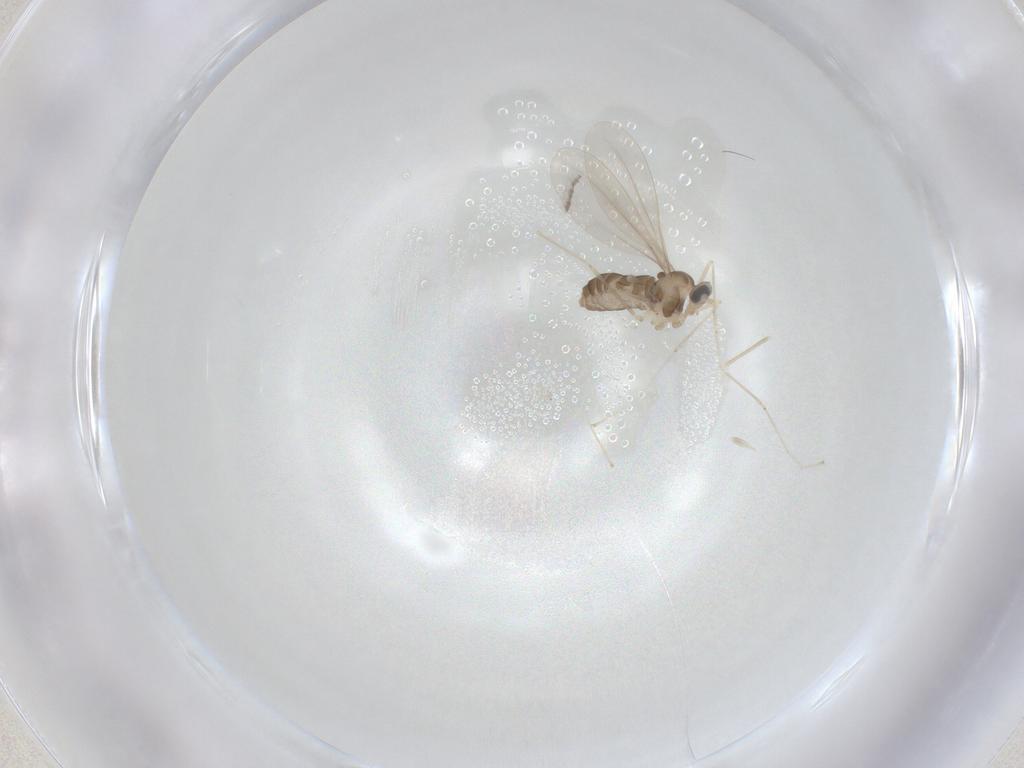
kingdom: Animalia
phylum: Arthropoda
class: Insecta
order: Diptera
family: Cecidomyiidae
